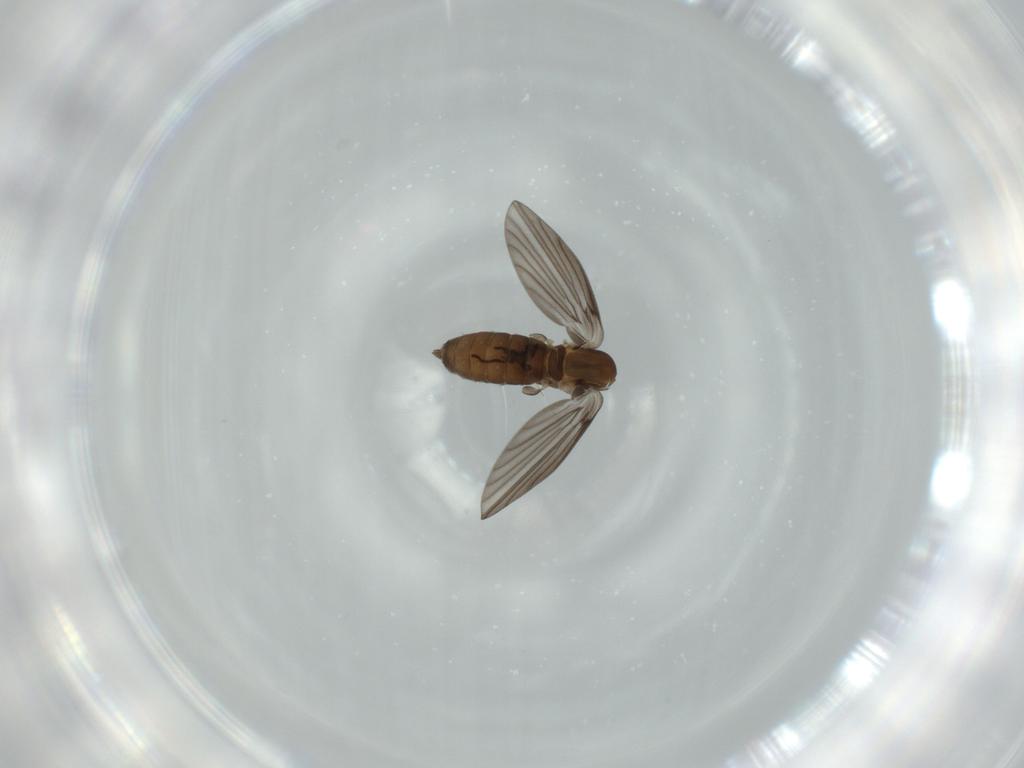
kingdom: Animalia
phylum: Arthropoda
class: Insecta
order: Diptera
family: Psychodidae
